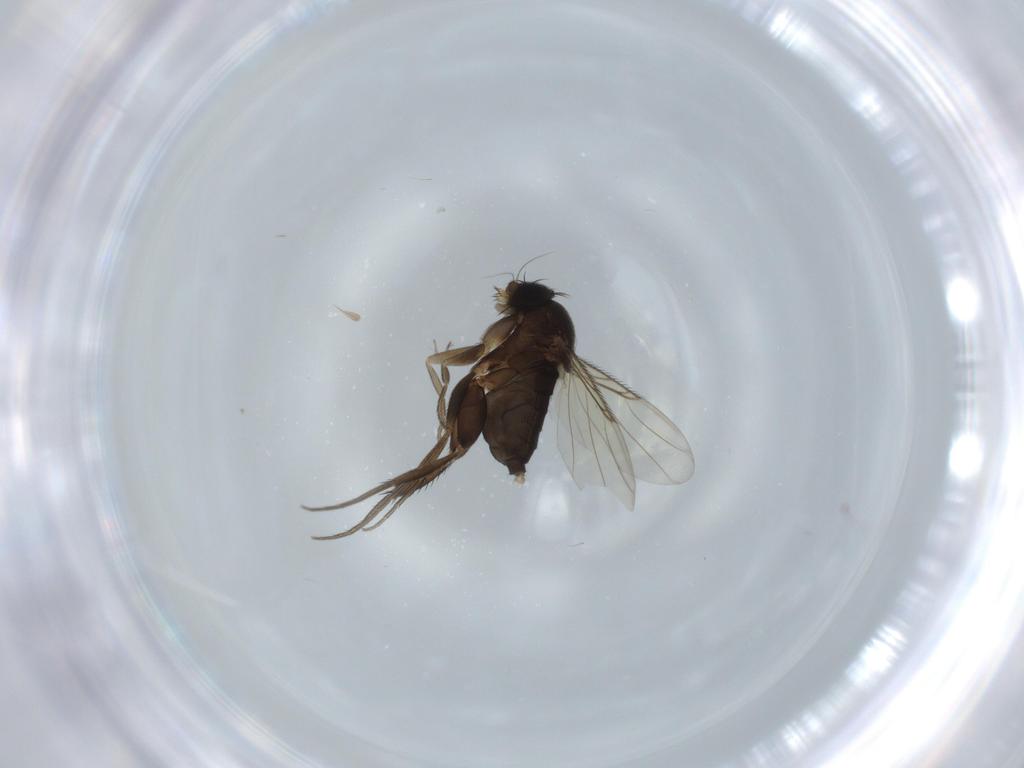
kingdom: Animalia
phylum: Arthropoda
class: Insecta
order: Diptera
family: Phoridae
